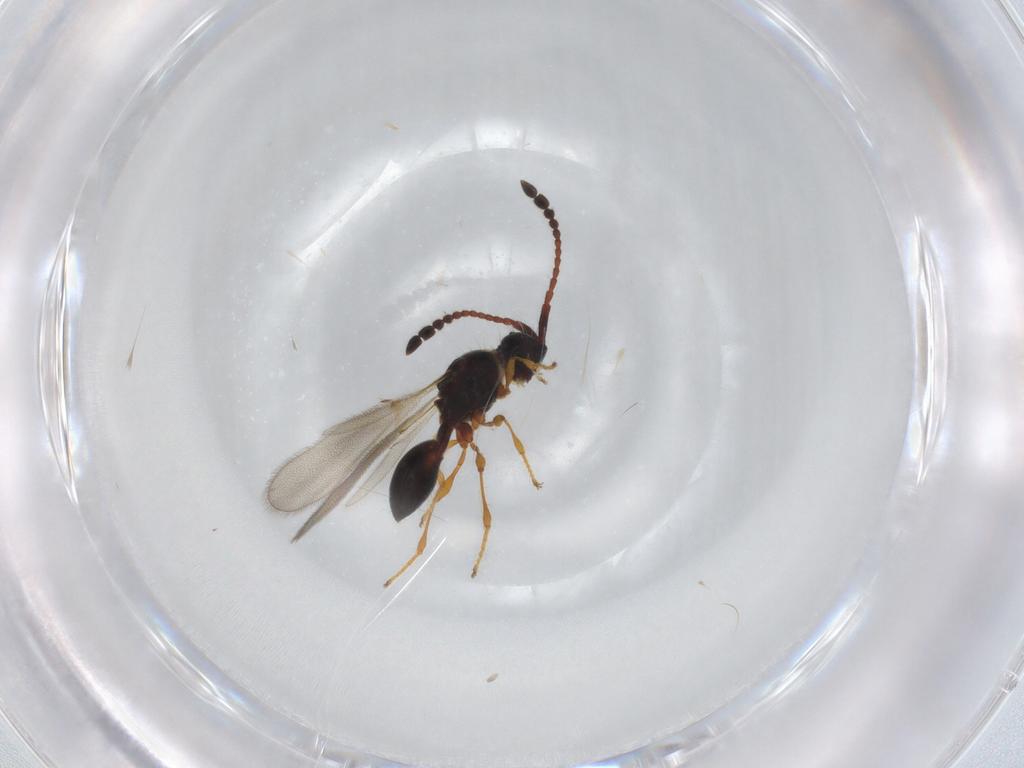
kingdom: Animalia
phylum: Arthropoda
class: Insecta
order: Hymenoptera
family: Diapriidae
